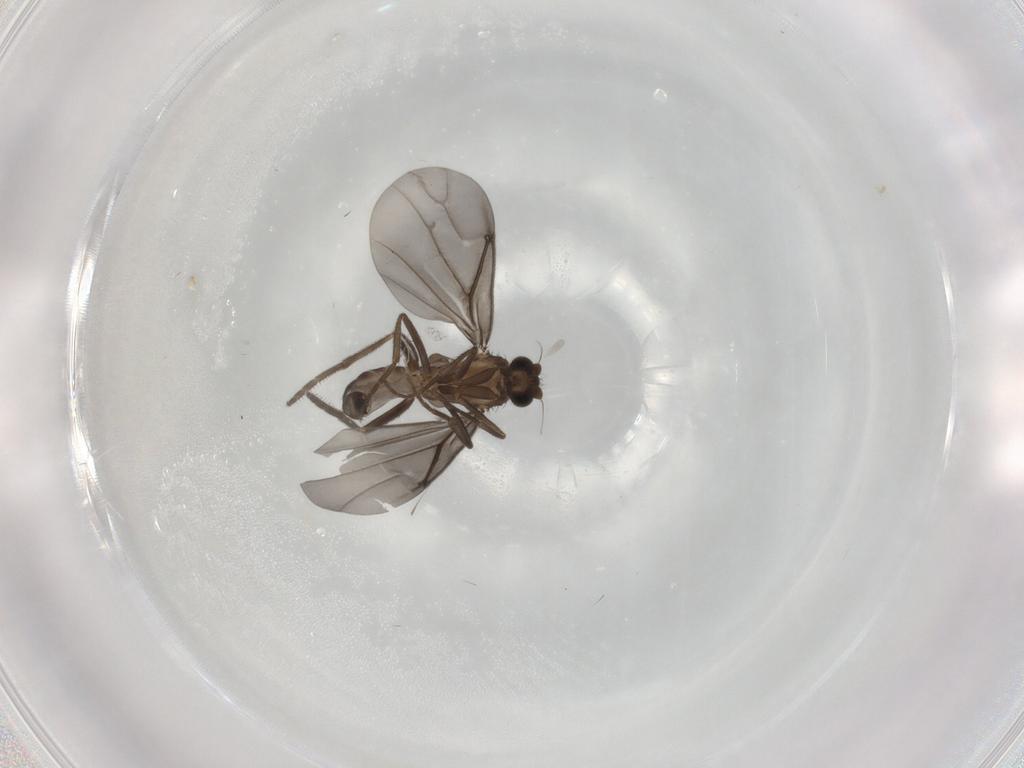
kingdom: Animalia
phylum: Arthropoda
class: Insecta
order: Diptera
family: Phoridae
